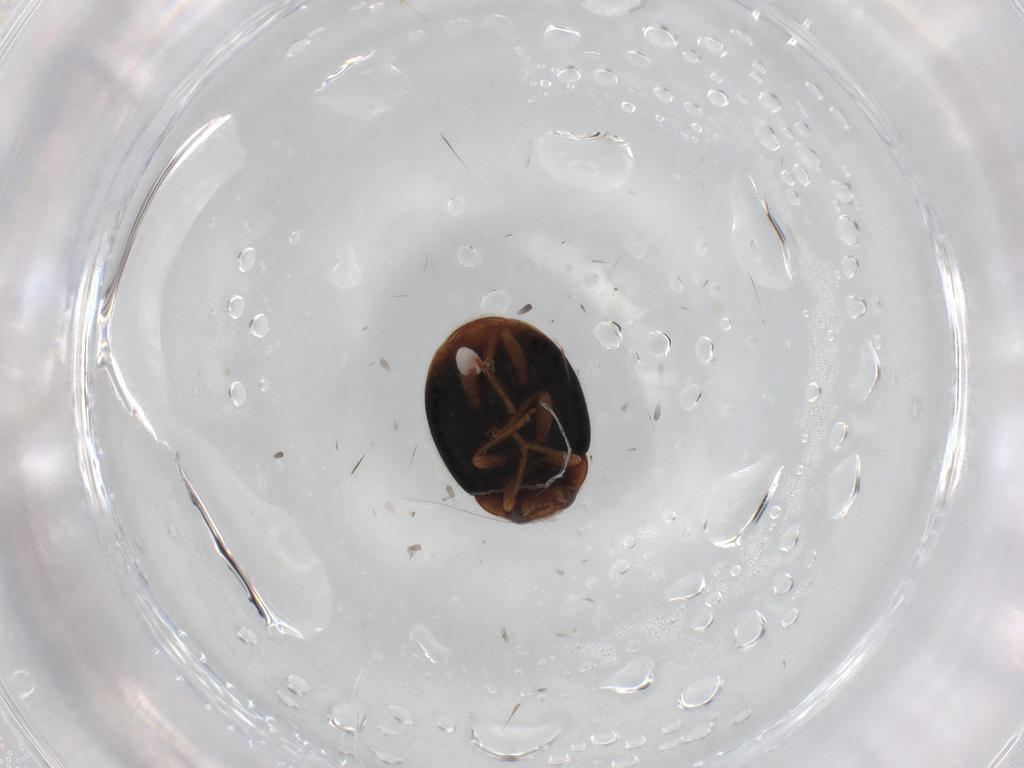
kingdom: Animalia
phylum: Arthropoda
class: Insecta
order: Coleoptera
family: Coccinellidae
